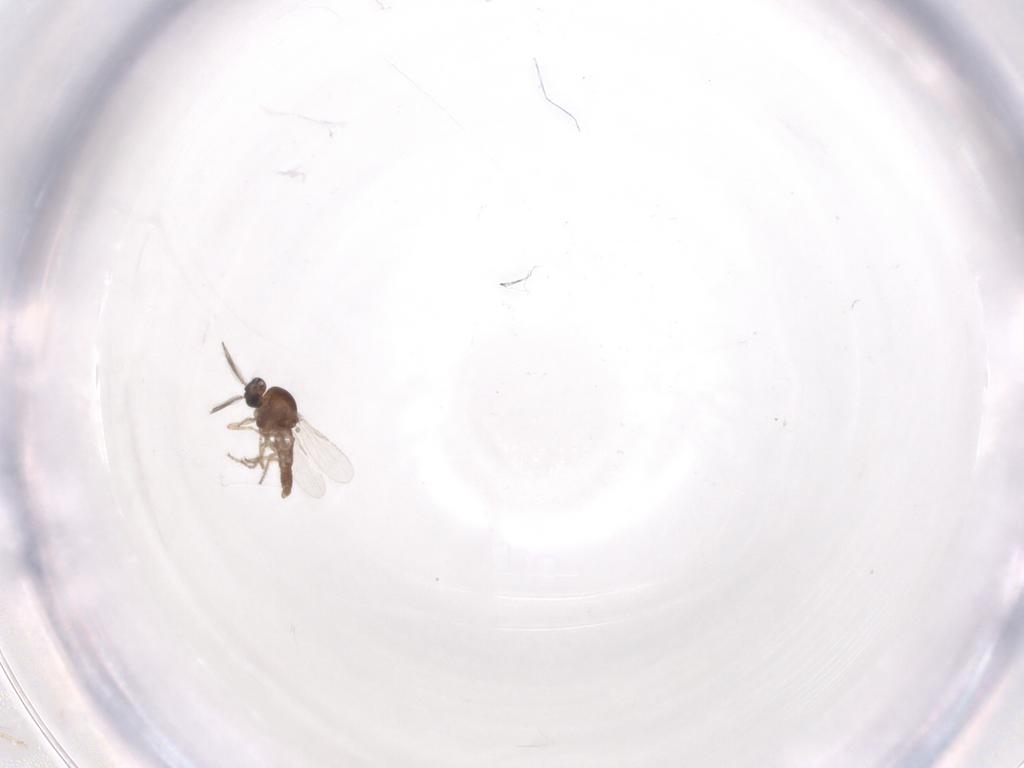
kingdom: Animalia
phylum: Arthropoda
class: Insecta
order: Diptera
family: Ceratopogonidae
